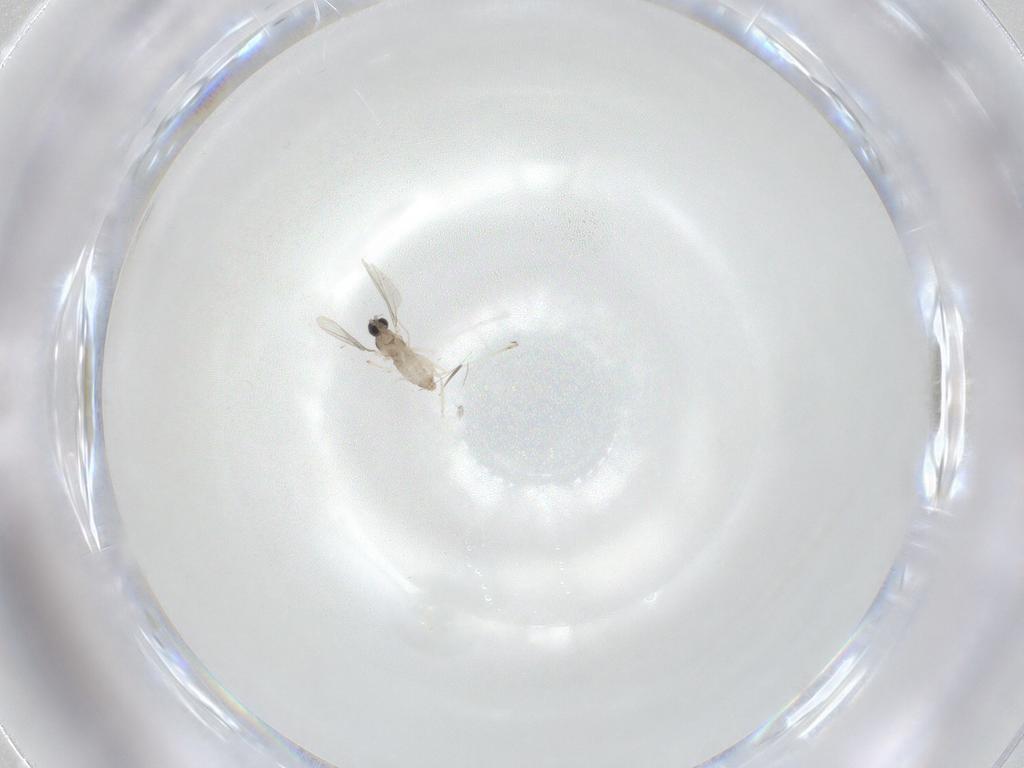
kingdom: Animalia
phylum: Arthropoda
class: Insecta
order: Diptera
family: Cecidomyiidae
